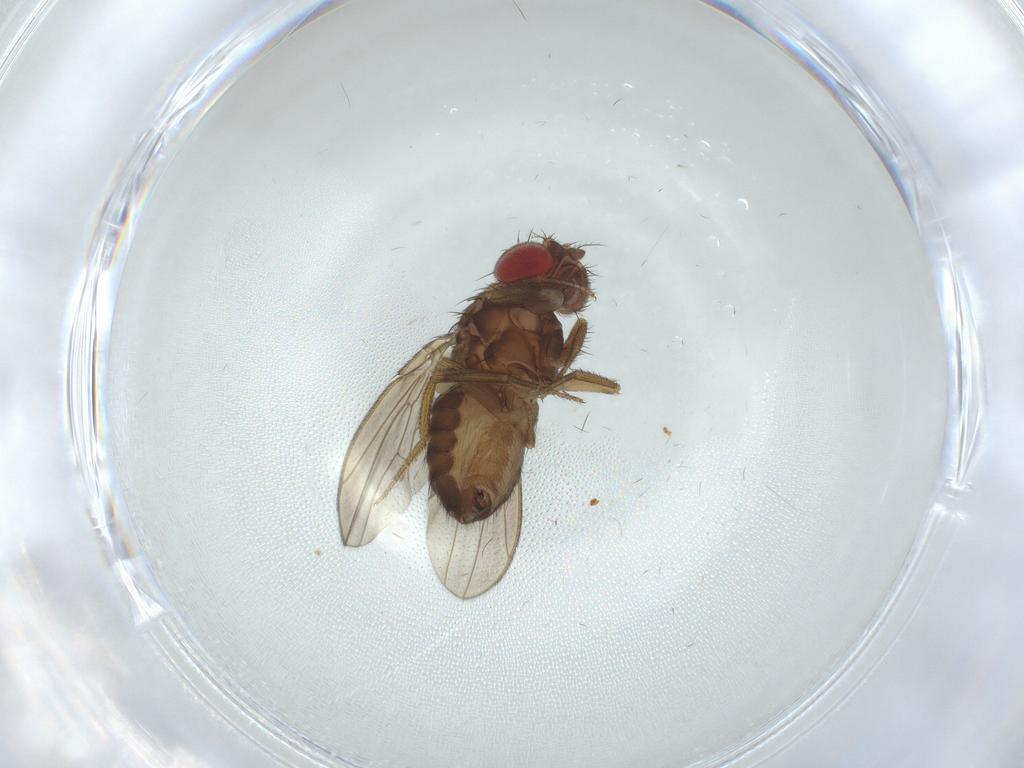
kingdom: Animalia
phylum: Arthropoda
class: Insecta
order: Diptera
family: Drosophilidae
